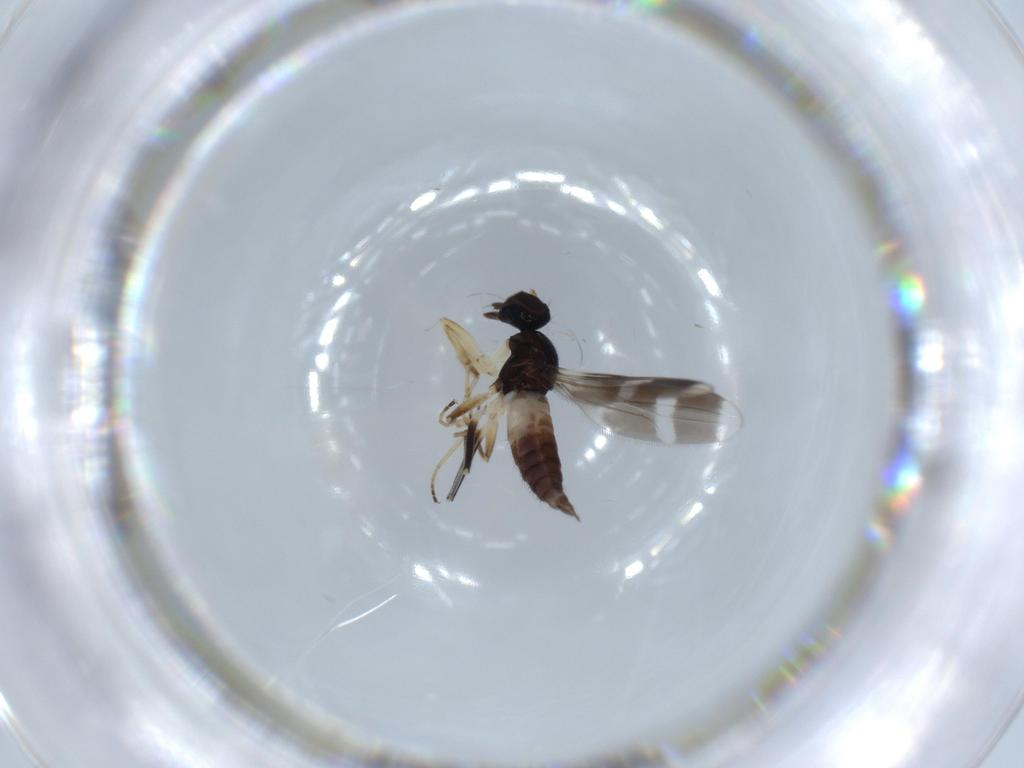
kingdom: Animalia
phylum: Arthropoda
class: Insecta
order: Diptera
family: Hybotidae
